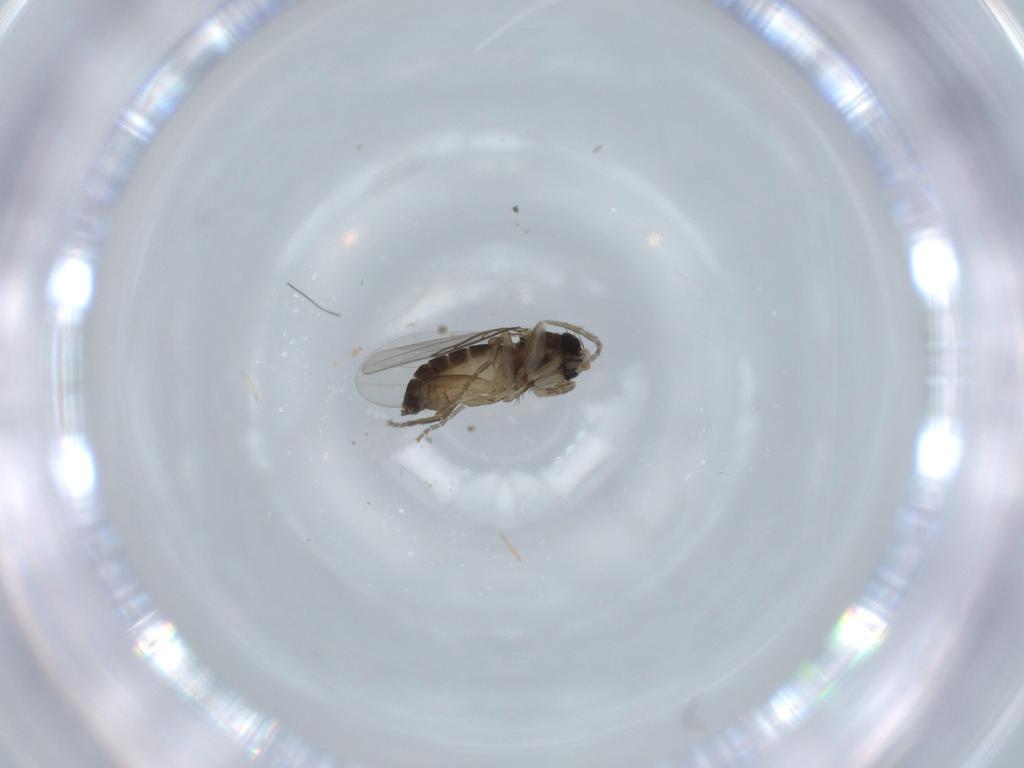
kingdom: Animalia
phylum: Arthropoda
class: Insecta
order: Diptera
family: Phoridae
